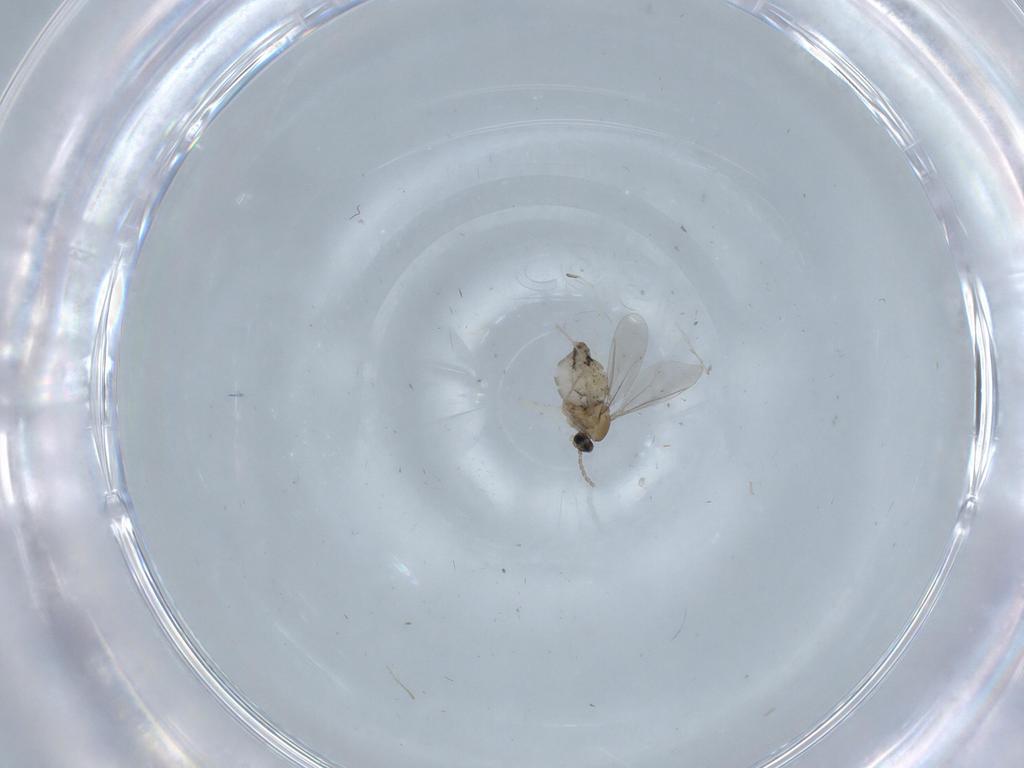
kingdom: Animalia
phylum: Arthropoda
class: Insecta
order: Diptera
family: Cecidomyiidae
